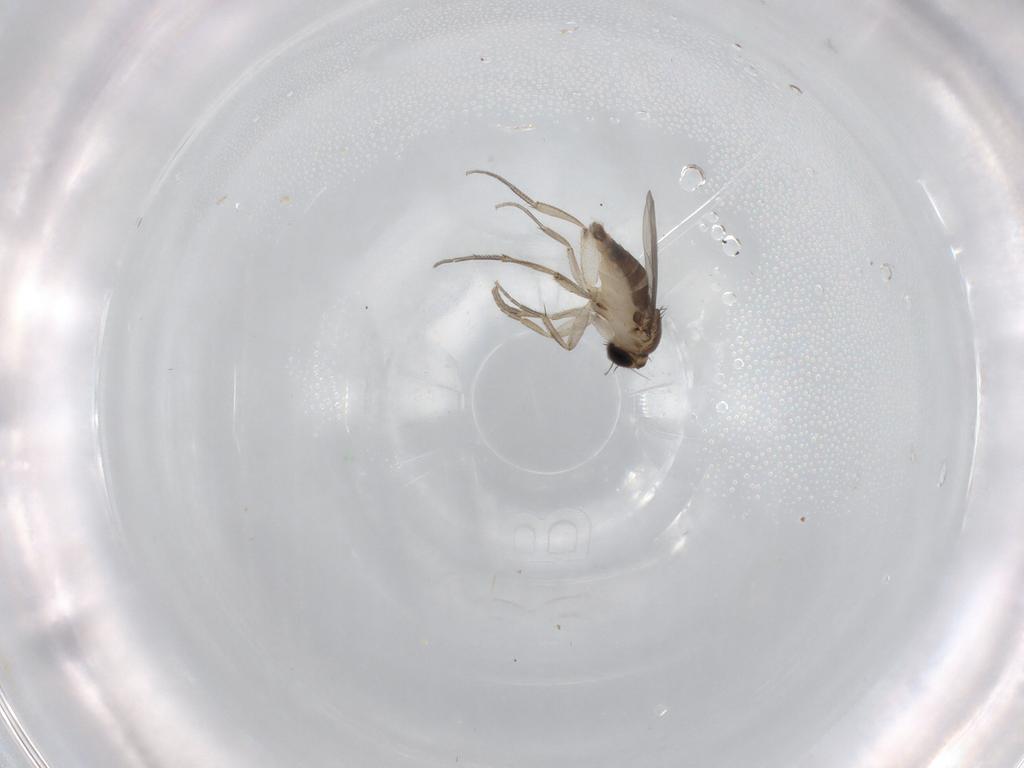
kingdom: Animalia
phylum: Arthropoda
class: Insecta
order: Diptera
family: Phoridae
